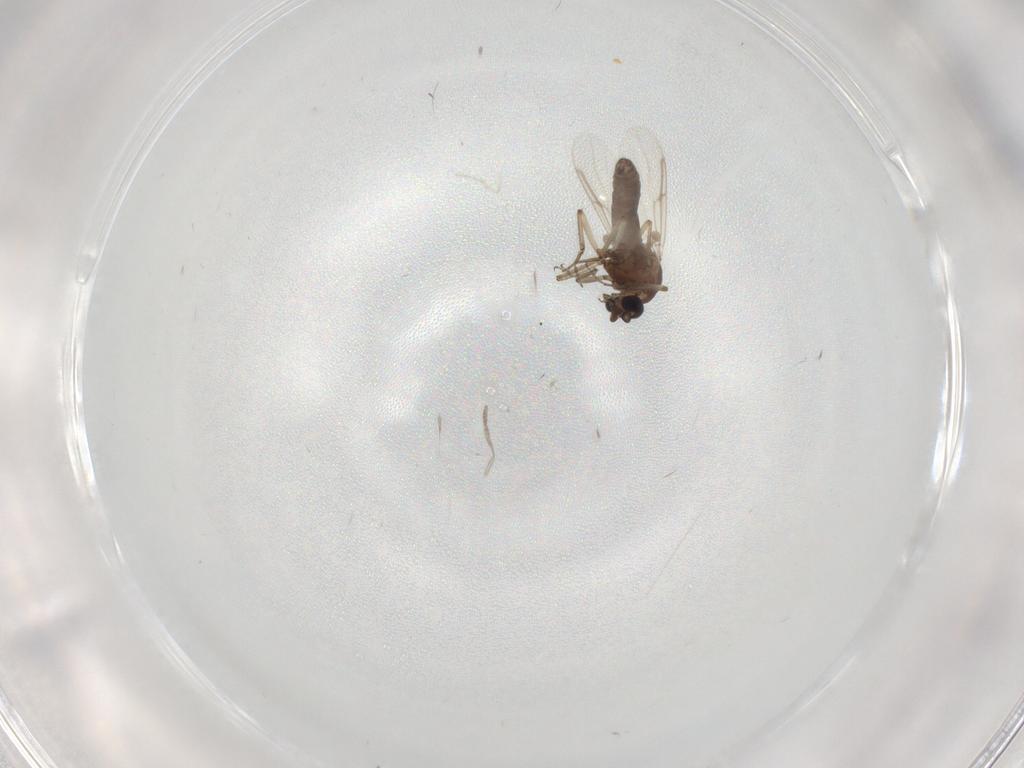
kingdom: Animalia
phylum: Arthropoda
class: Insecta
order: Diptera
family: Cecidomyiidae
